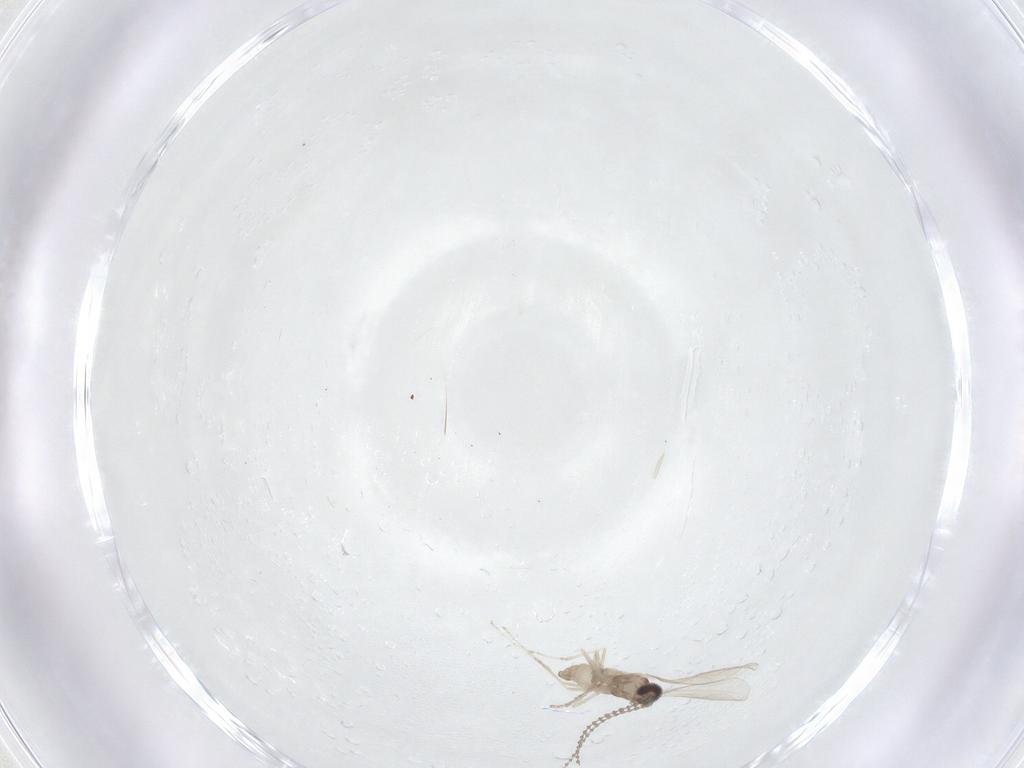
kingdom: Animalia
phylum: Arthropoda
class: Insecta
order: Diptera
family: Cecidomyiidae
